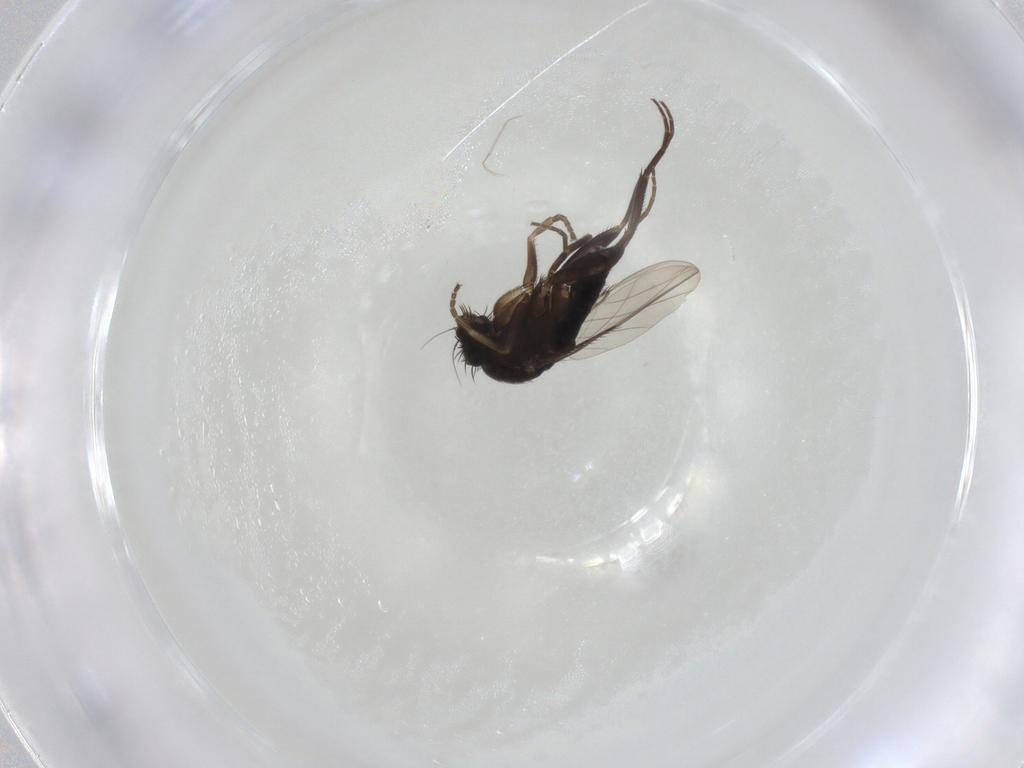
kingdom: Animalia
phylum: Arthropoda
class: Insecta
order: Diptera
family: Phoridae
